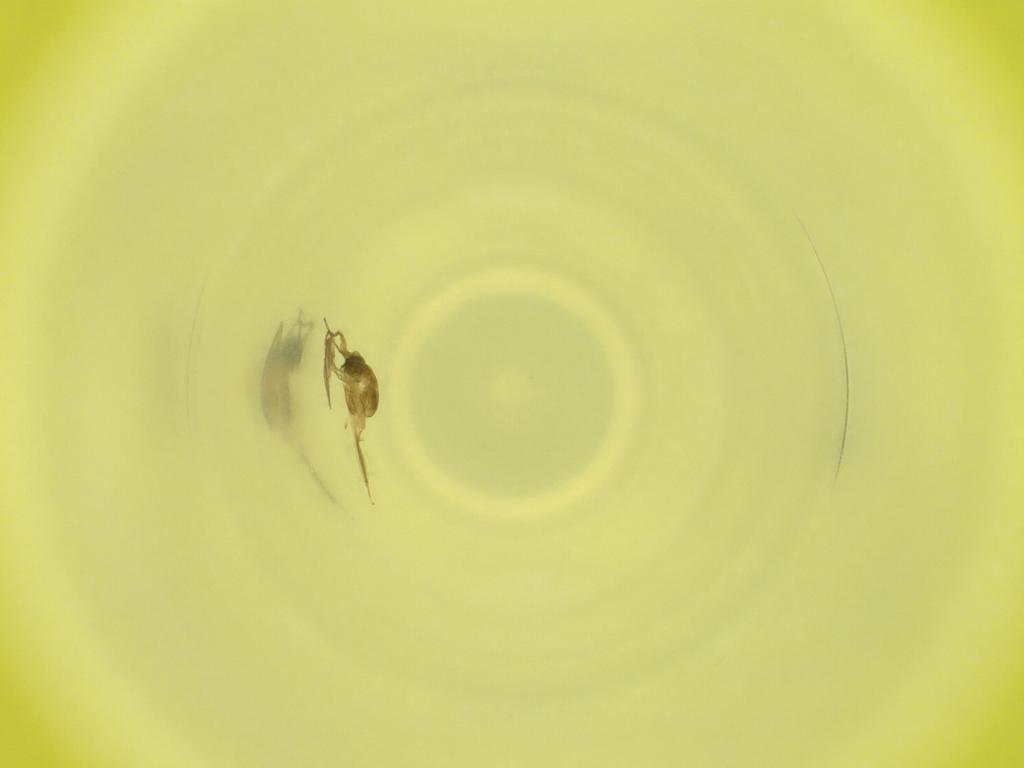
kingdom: Animalia
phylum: Arthropoda
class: Insecta
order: Diptera
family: Cecidomyiidae
